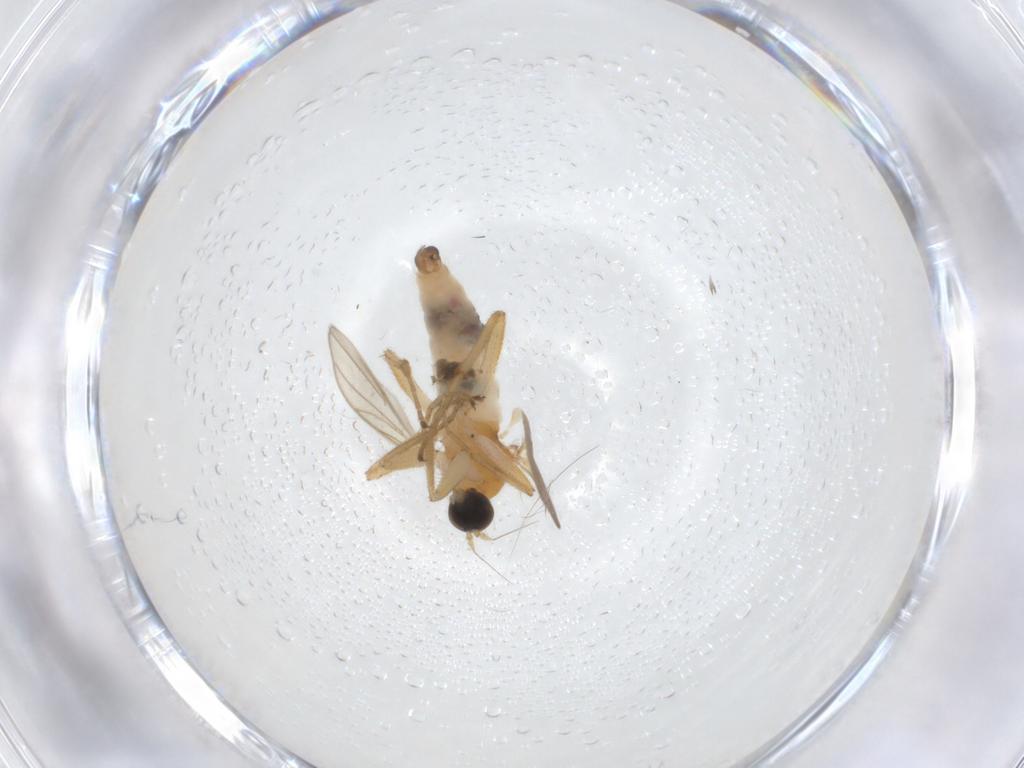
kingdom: Animalia
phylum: Arthropoda
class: Insecta
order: Diptera
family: Hybotidae
